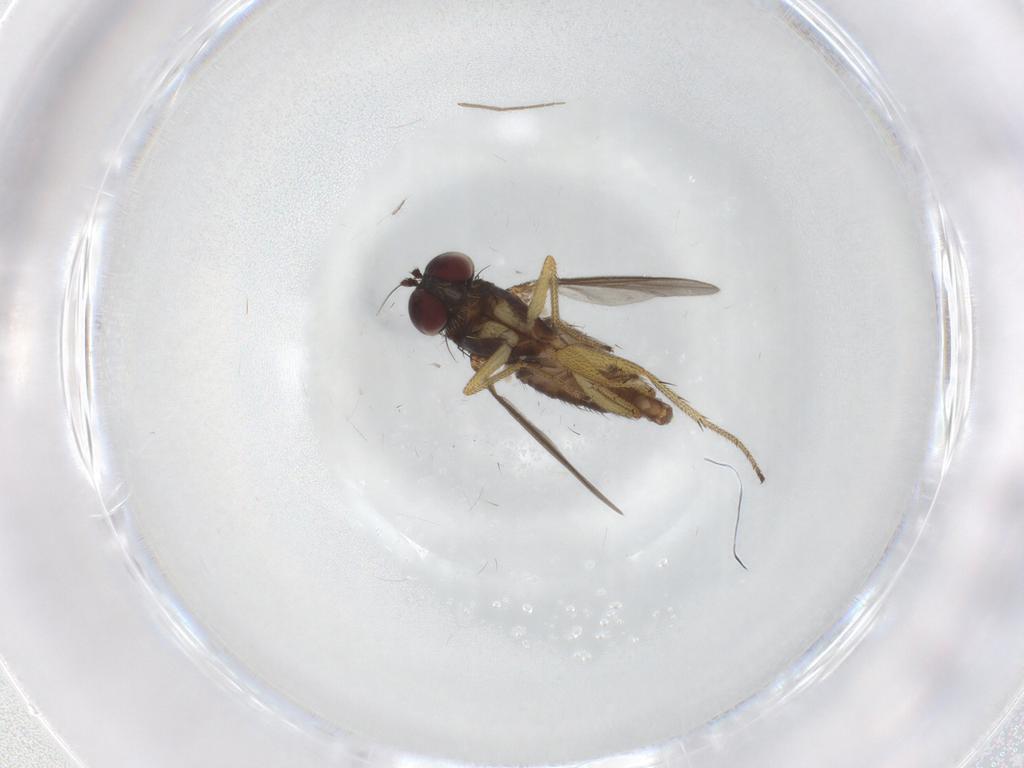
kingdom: Animalia
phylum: Arthropoda
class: Insecta
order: Diptera
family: Dolichopodidae
